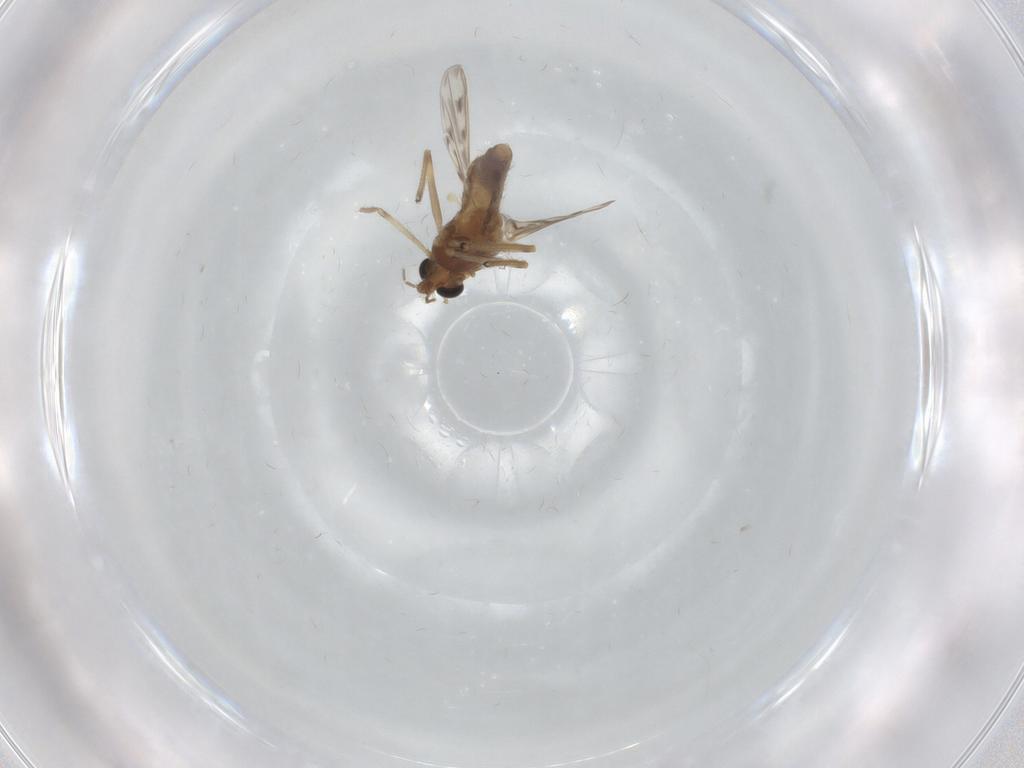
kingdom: Animalia
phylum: Arthropoda
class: Insecta
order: Diptera
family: Chironomidae
